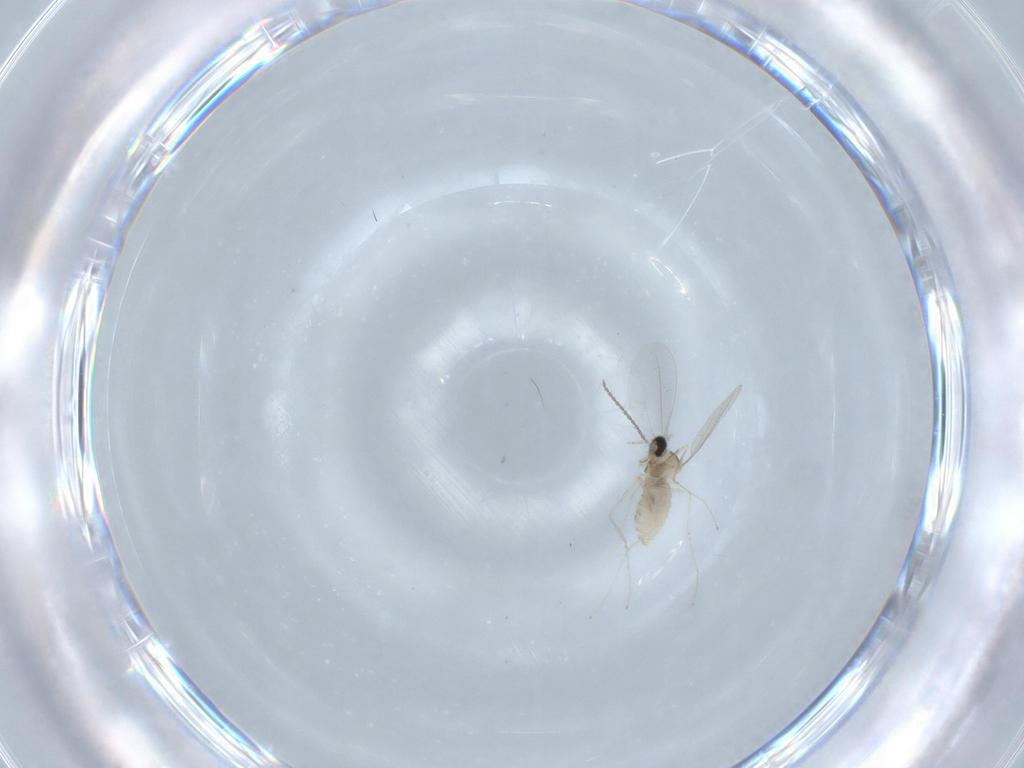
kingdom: Animalia
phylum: Arthropoda
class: Insecta
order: Diptera
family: Cecidomyiidae
